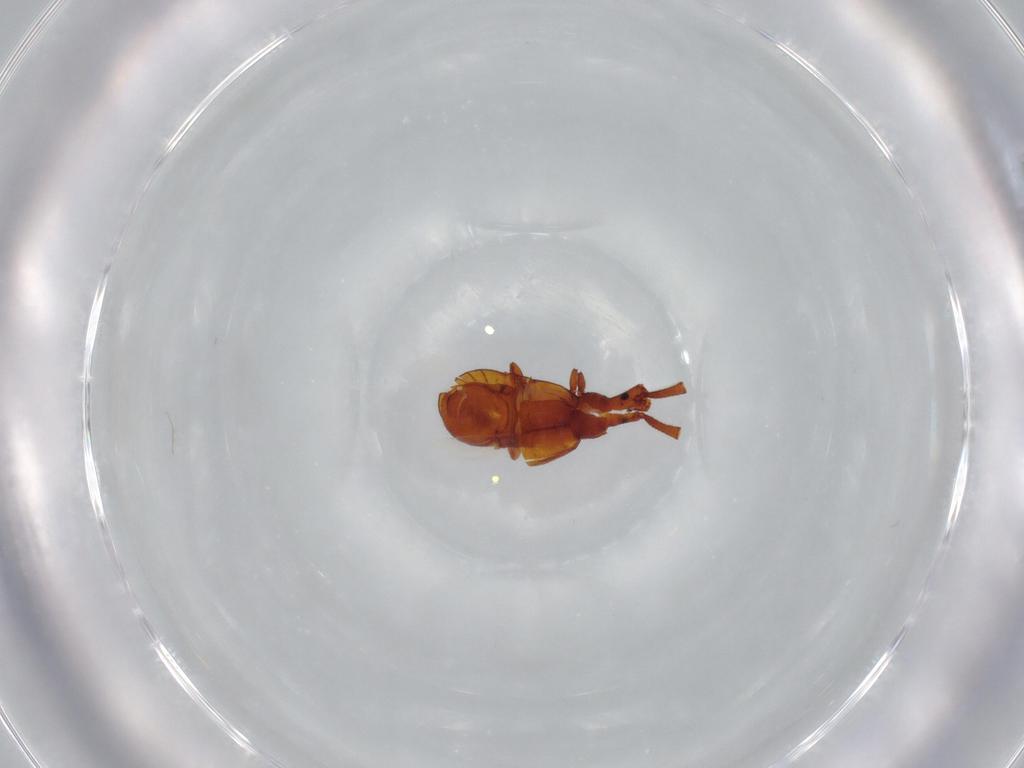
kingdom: Animalia
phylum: Arthropoda
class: Insecta
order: Coleoptera
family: Staphylinidae
